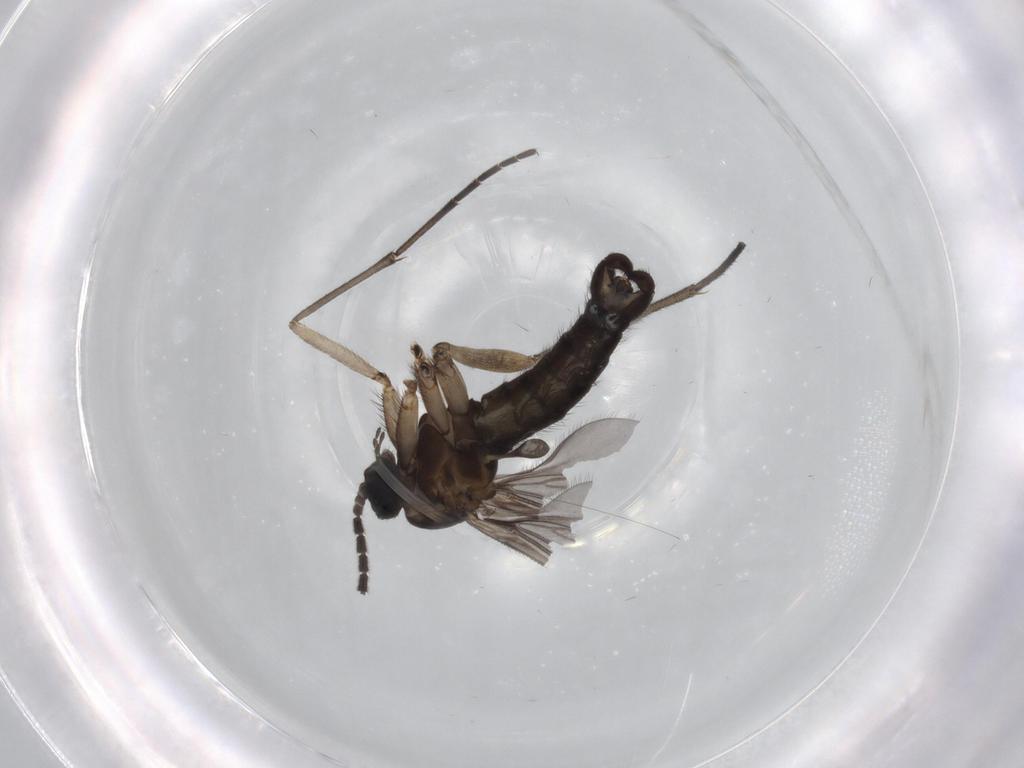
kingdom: Animalia
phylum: Arthropoda
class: Insecta
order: Diptera
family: Sciaridae
